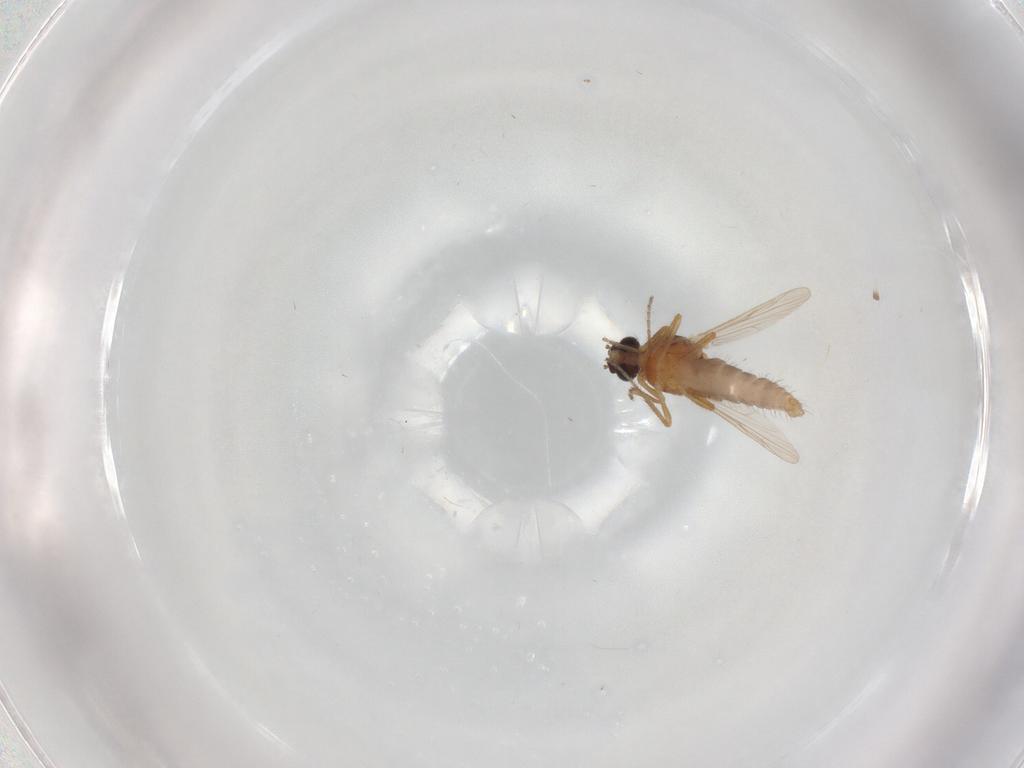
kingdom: Animalia
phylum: Arthropoda
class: Insecta
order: Diptera
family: Ceratopogonidae
